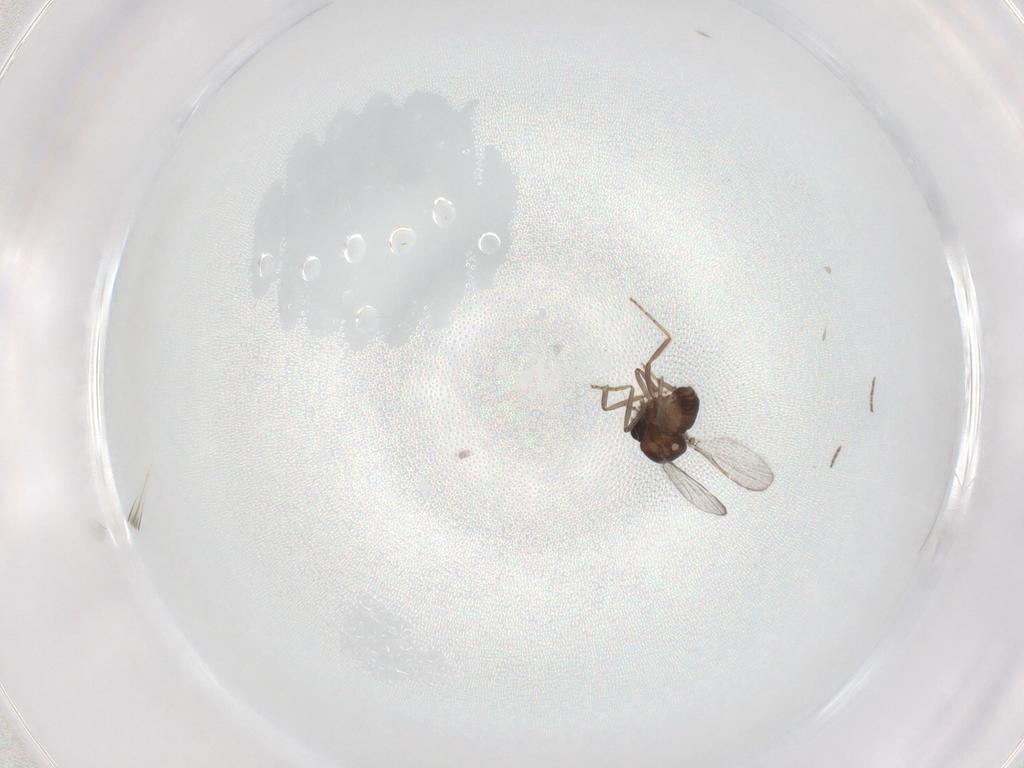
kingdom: Animalia
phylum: Arthropoda
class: Insecta
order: Diptera
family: Ceratopogonidae
